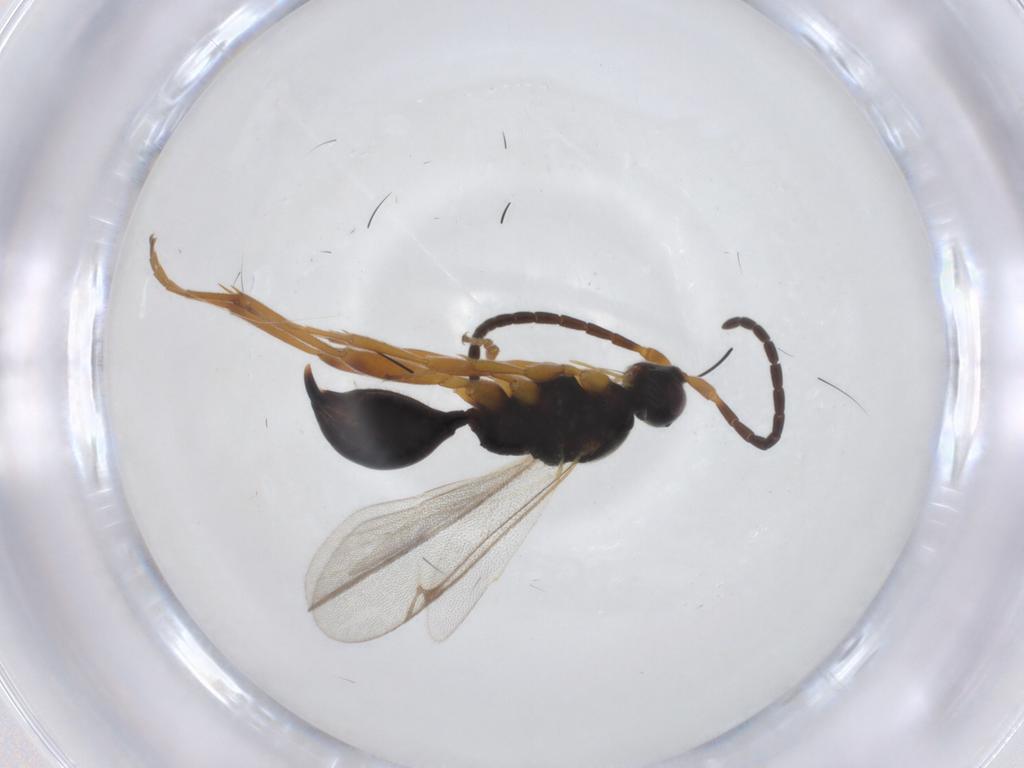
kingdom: Animalia
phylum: Arthropoda
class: Insecta
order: Hymenoptera
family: Proctotrupidae
